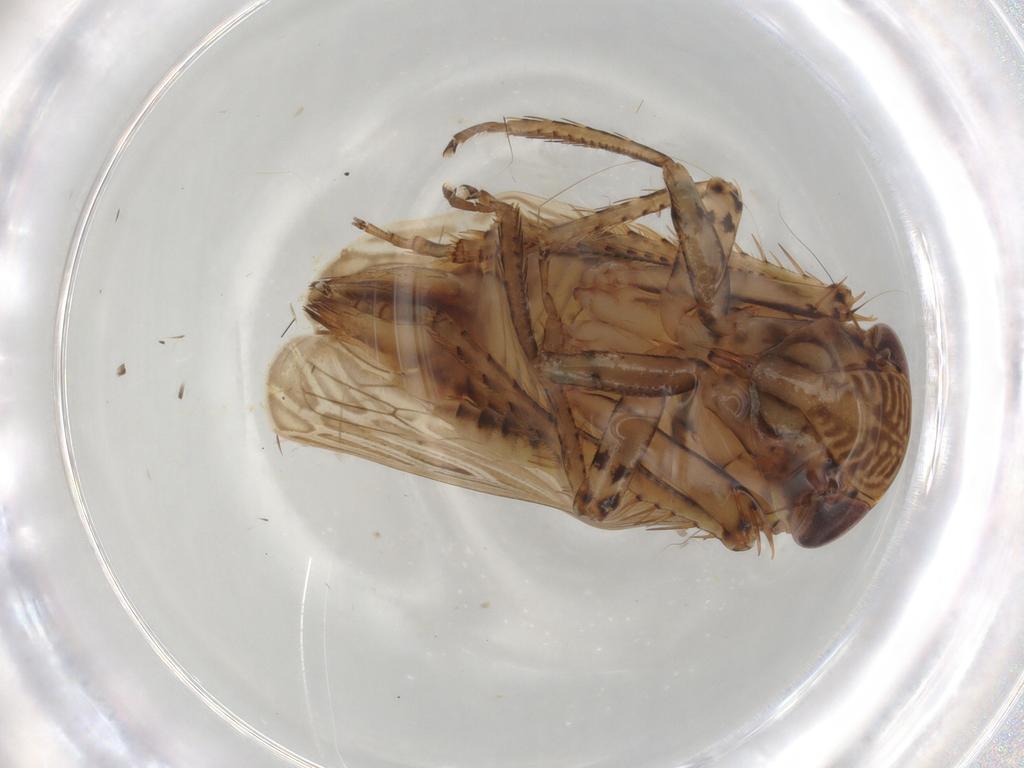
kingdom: Animalia
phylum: Arthropoda
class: Insecta
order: Hemiptera
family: Cicadellidae
